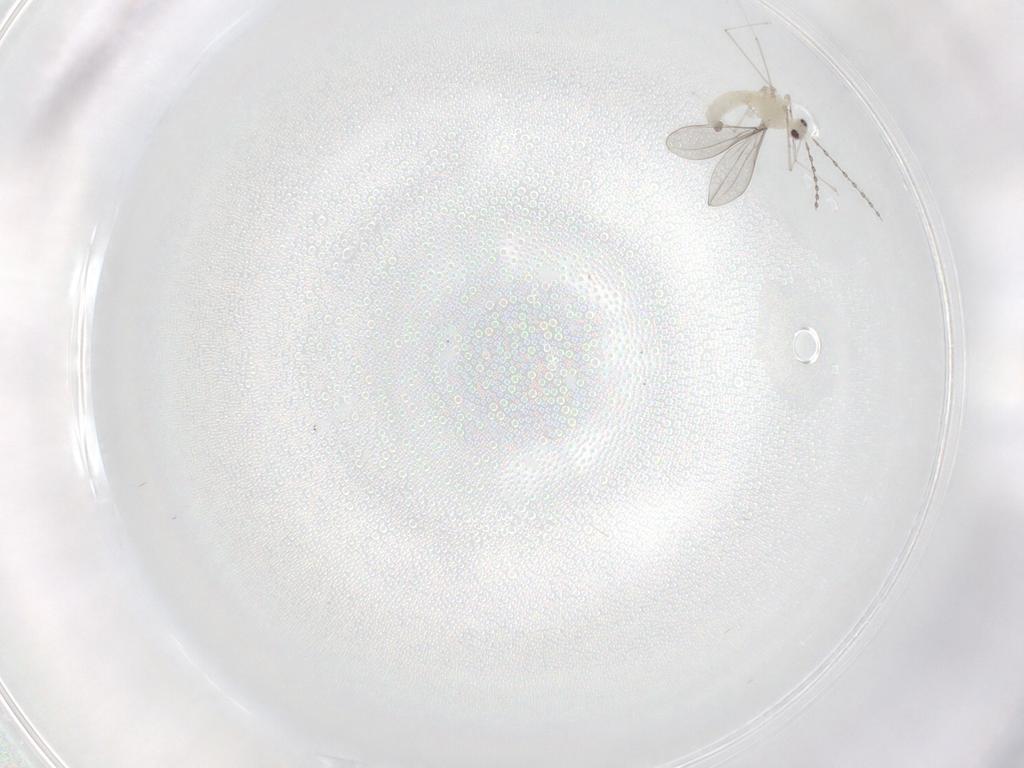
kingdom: Animalia
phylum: Arthropoda
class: Insecta
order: Diptera
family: Cecidomyiidae
